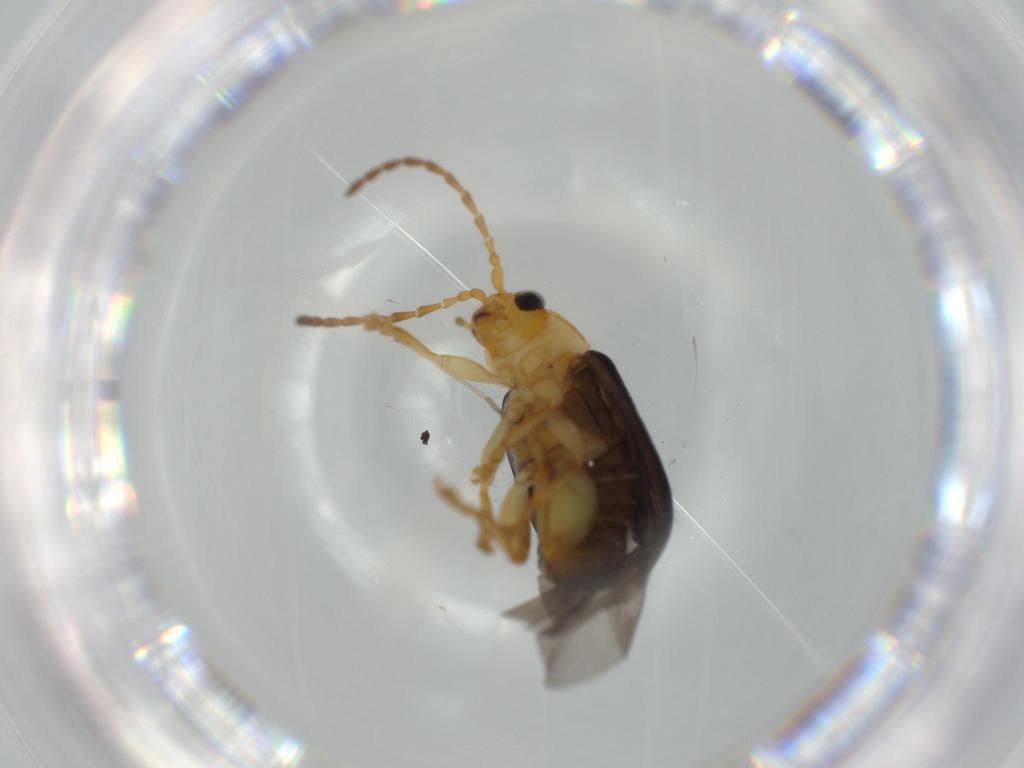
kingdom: Animalia
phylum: Arthropoda
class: Insecta
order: Coleoptera
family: Chrysomelidae
